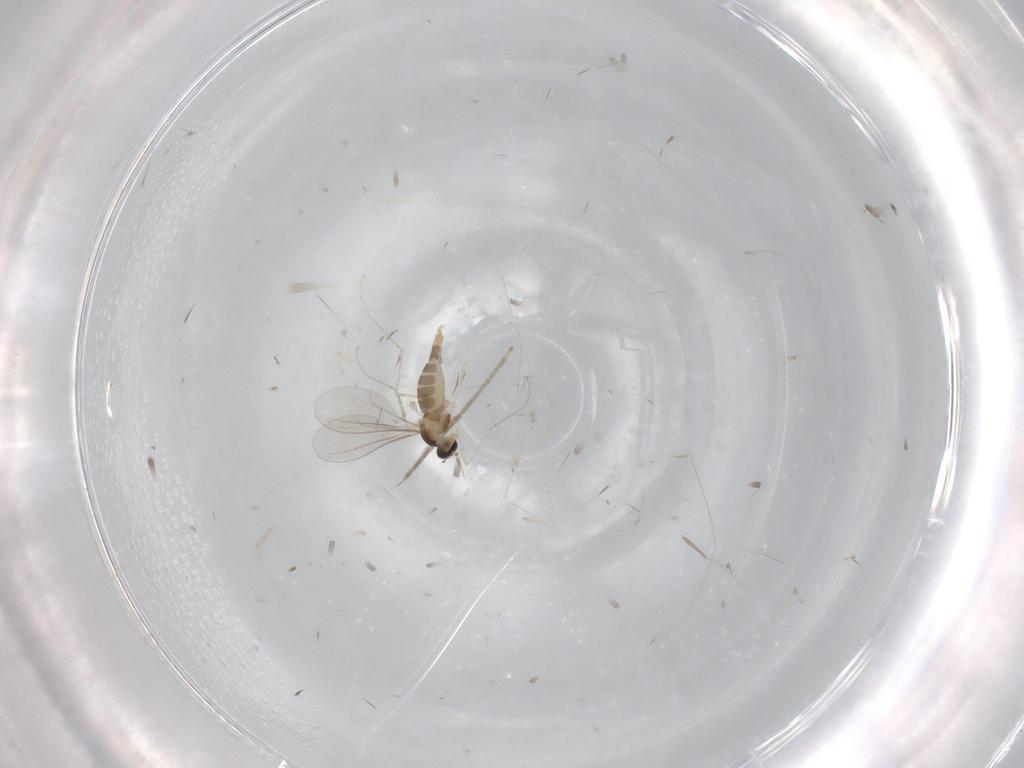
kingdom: Animalia
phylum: Arthropoda
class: Insecta
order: Diptera
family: Cecidomyiidae
